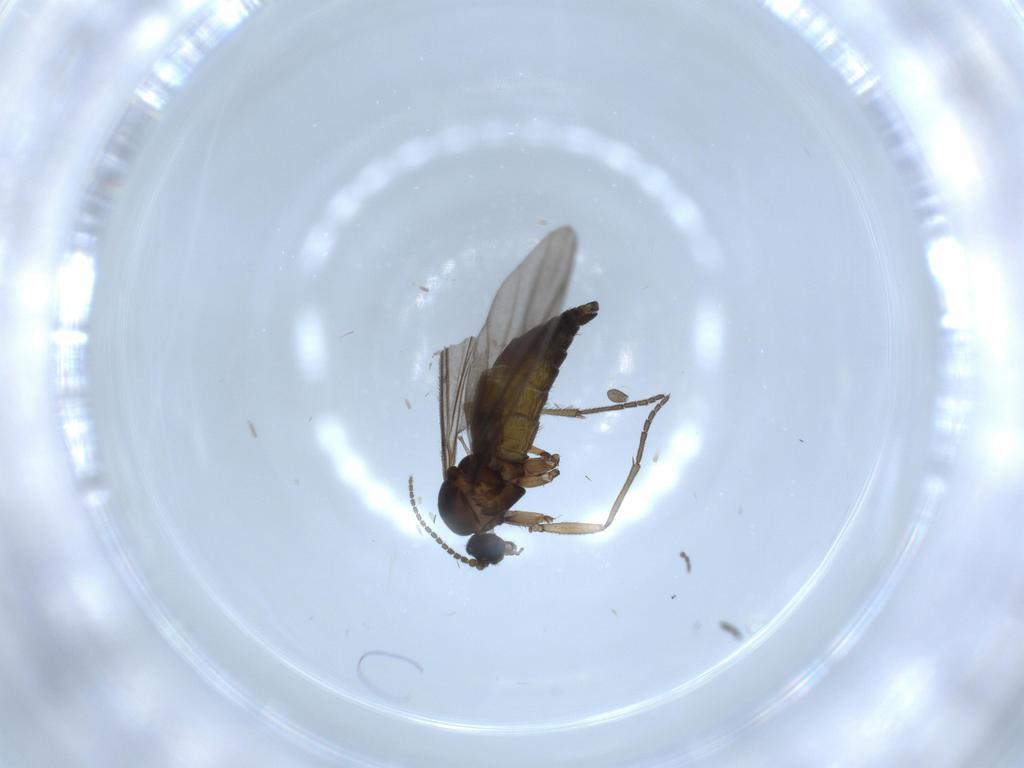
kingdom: Animalia
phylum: Arthropoda
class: Insecta
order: Diptera
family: Sciaridae
